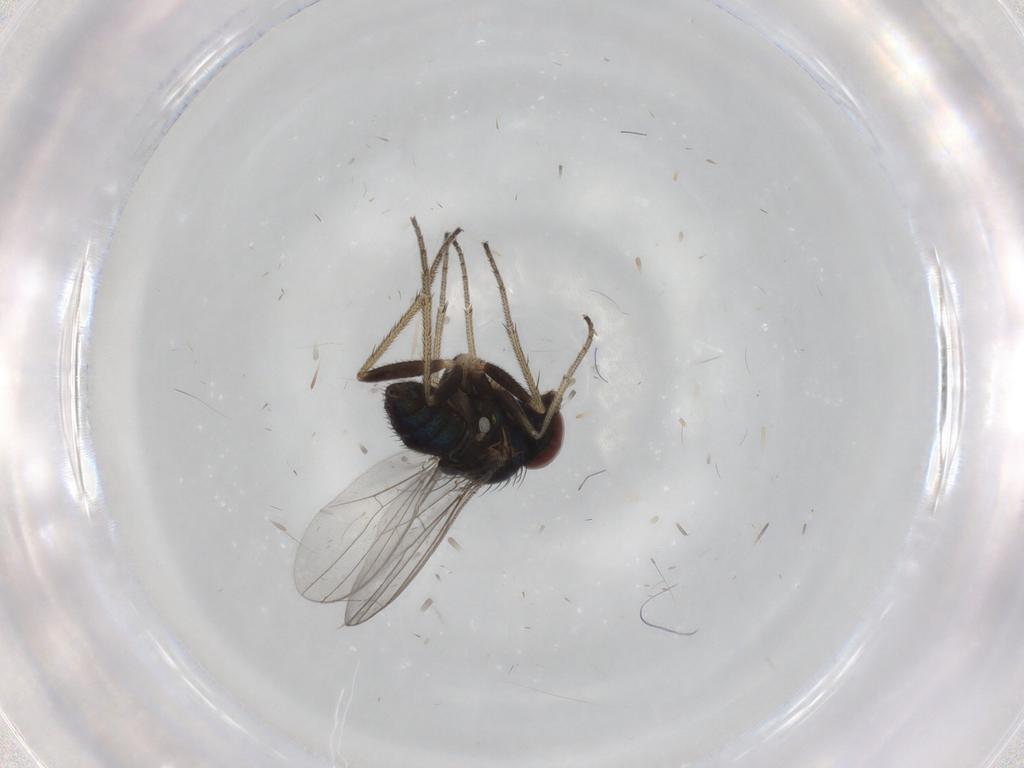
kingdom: Animalia
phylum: Arthropoda
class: Insecta
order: Diptera
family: Dolichopodidae
